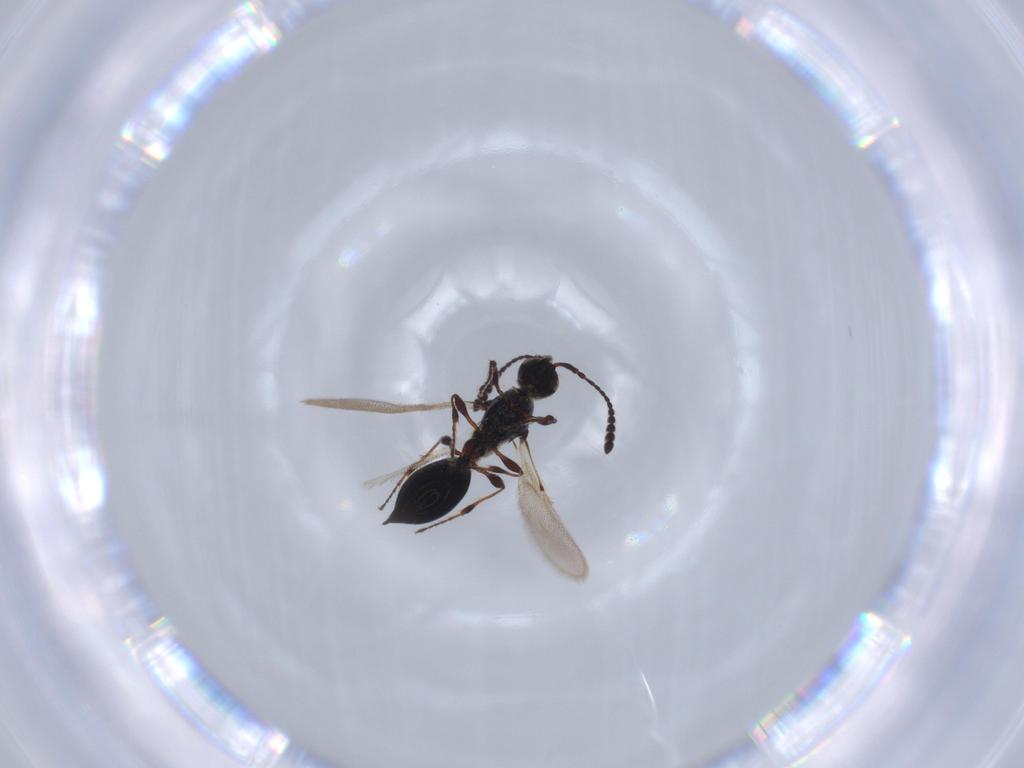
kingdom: Animalia
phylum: Arthropoda
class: Insecta
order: Hymenoptera
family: Diapriidae
